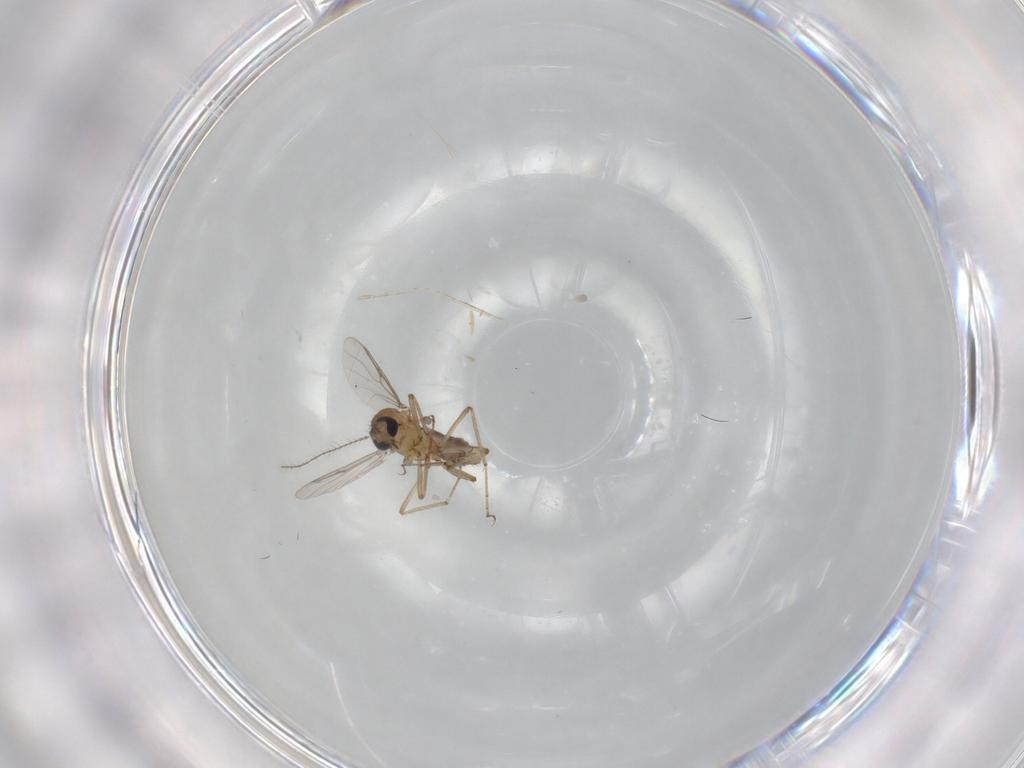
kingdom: Animalia
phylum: Arthropoda
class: Insecta
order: Diptera
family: Ceratopogonidae
